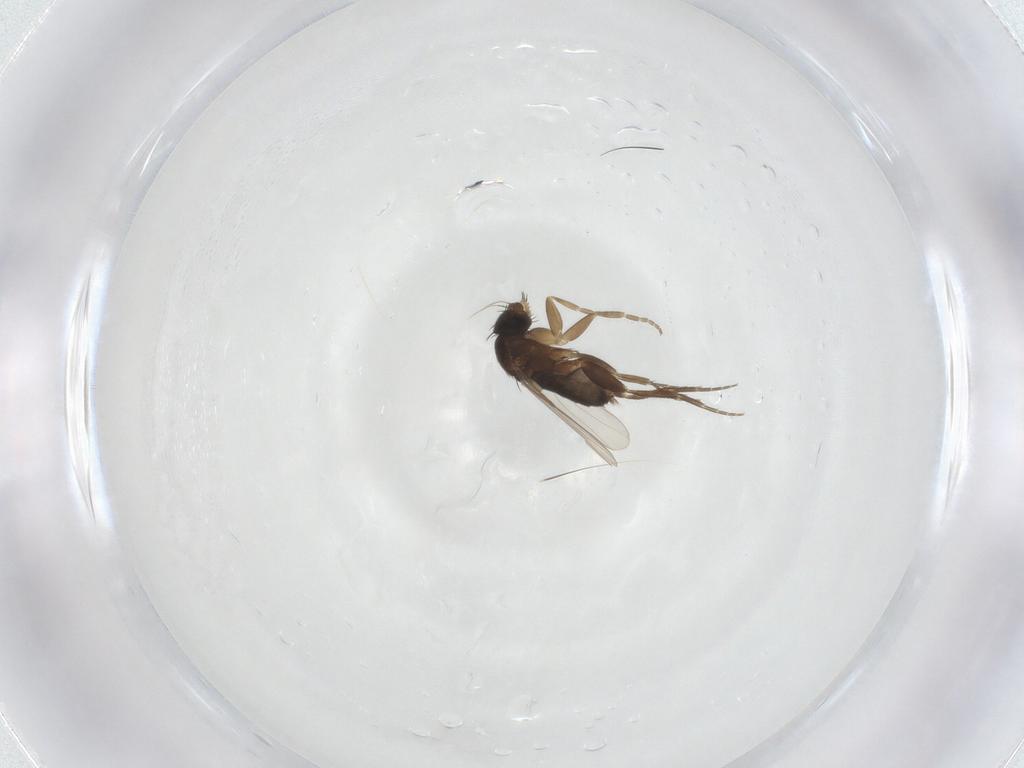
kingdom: Animalia
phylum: Arthropoda
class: Insecta
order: Diptera
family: Phoridae
